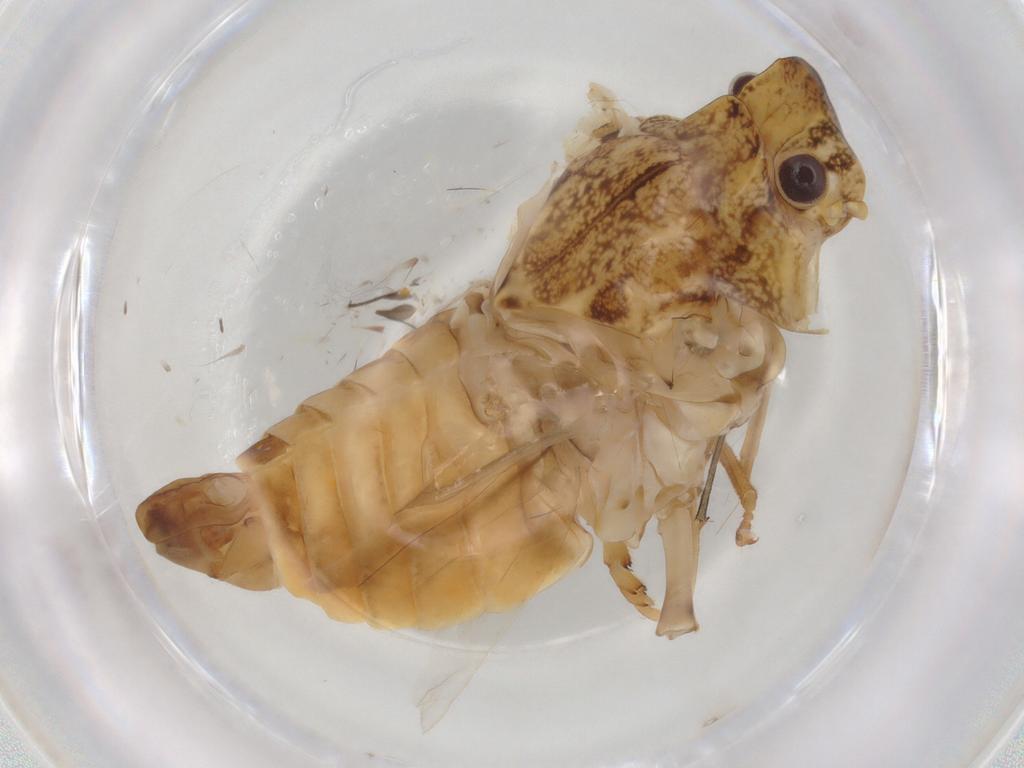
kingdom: Animalia
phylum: Arthropoda
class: Insecta
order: Hemiptera
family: Flatidae
